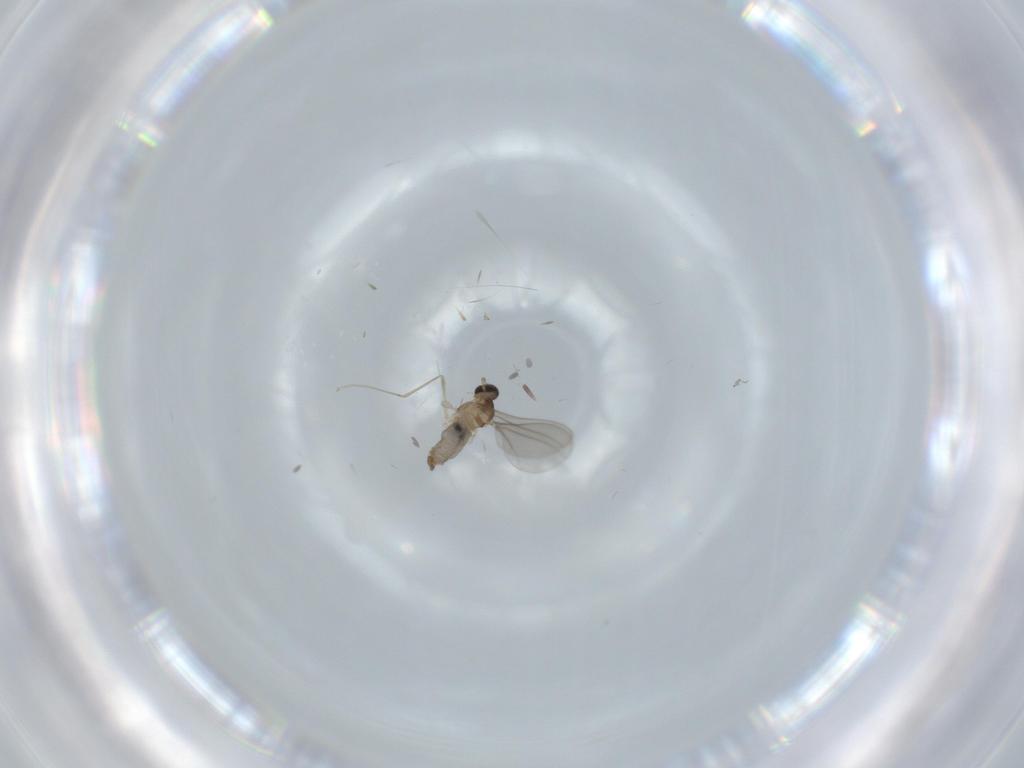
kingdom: Animalia
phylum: Arthropoda
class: Insecta
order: Diptera
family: Cecidomyiidae
